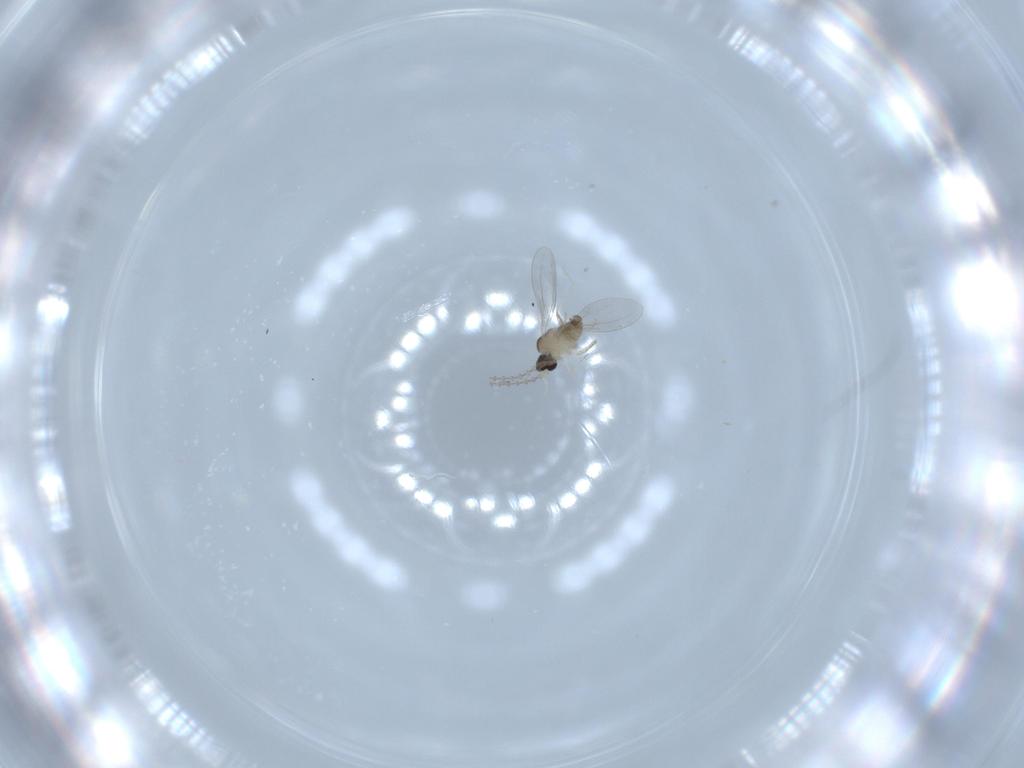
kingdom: Animalia
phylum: Arthropoda
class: Insecta
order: Diptera
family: Cecidomyiidae
